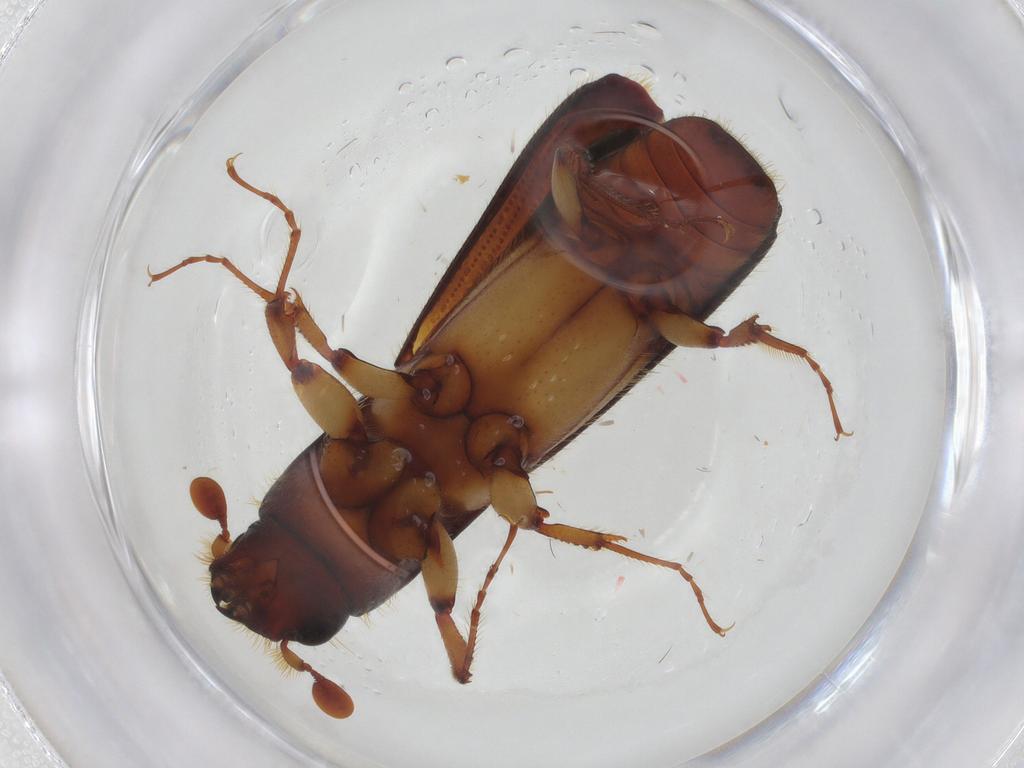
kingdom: Animalia
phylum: Arthropoda
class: Insecta
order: Coleoptera
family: Curculionidae
